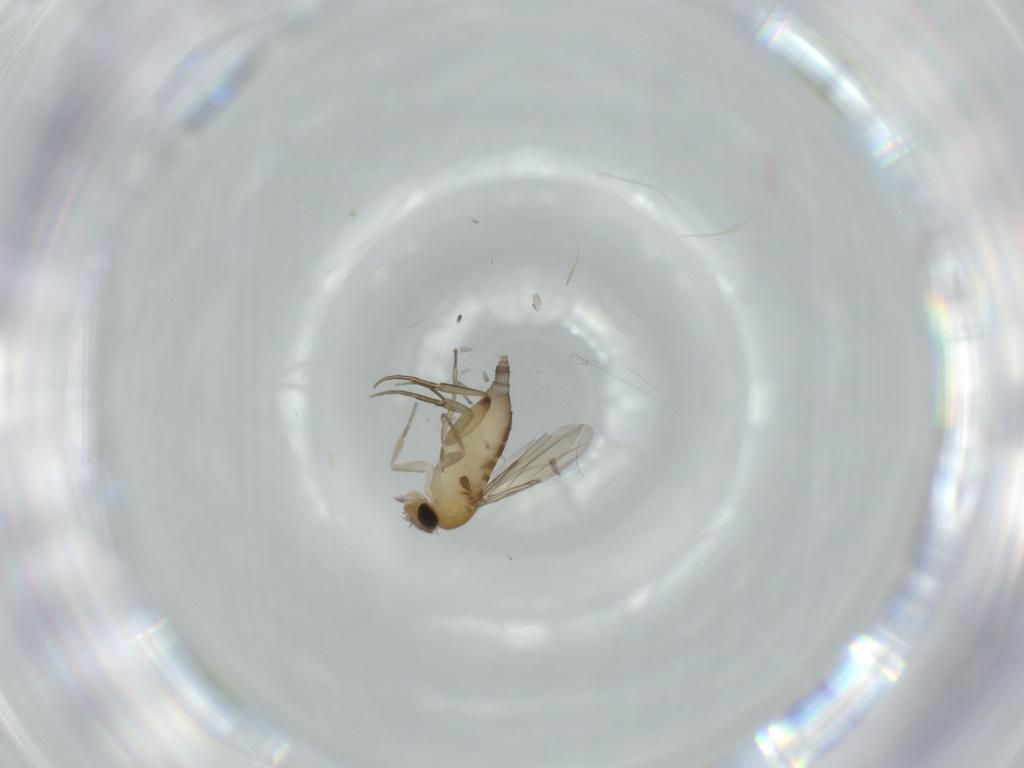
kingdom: Animalia
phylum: Arthropoda
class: Insecta
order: Diptera
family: Phoridae
